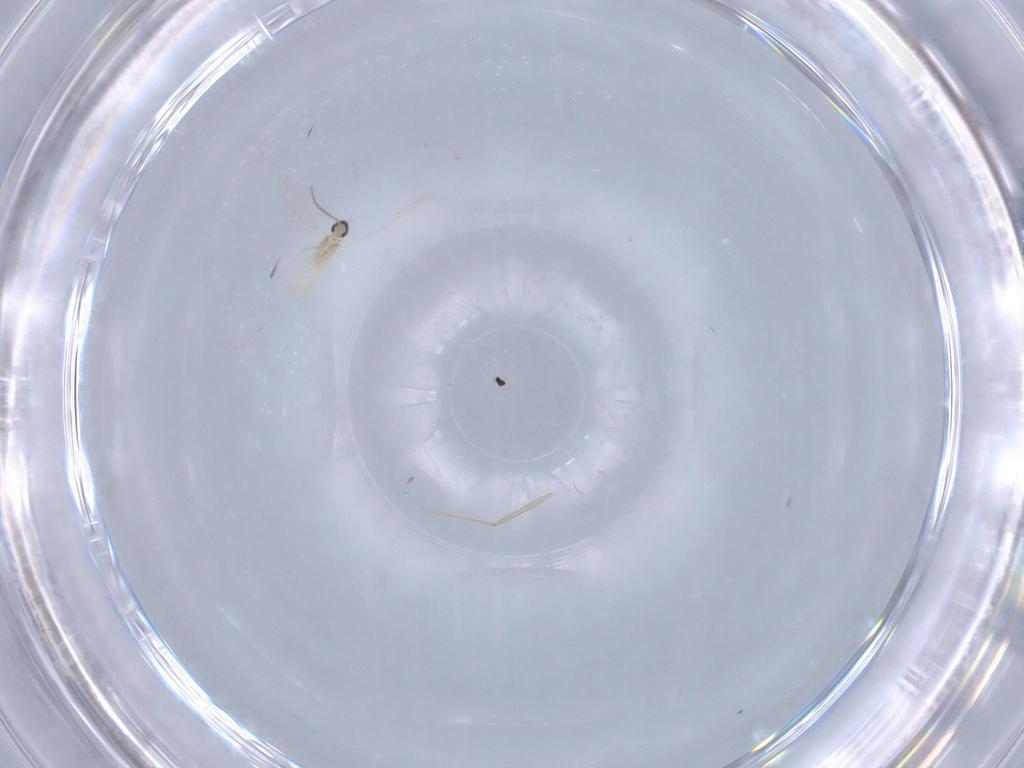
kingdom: Animalia
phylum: Arthropoda
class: Insecta
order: Diptera
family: Cecidomyiidae
